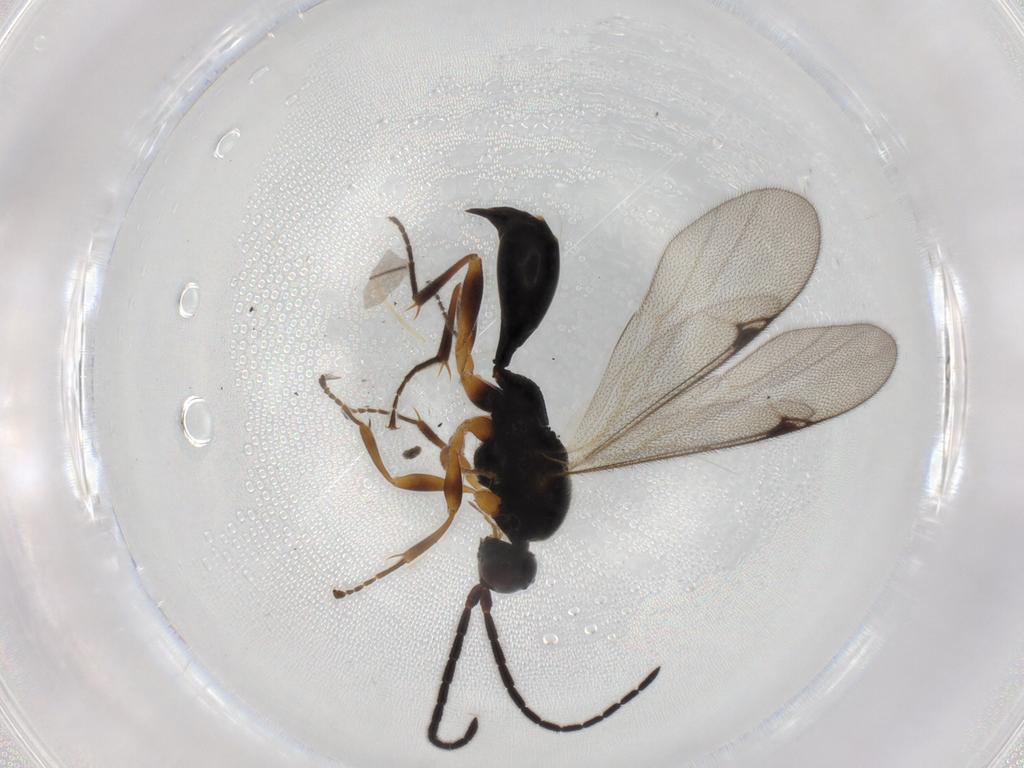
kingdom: Animalia
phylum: Arthropoda
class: Insecta
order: Hymenoptera
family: Proctotrupidae
